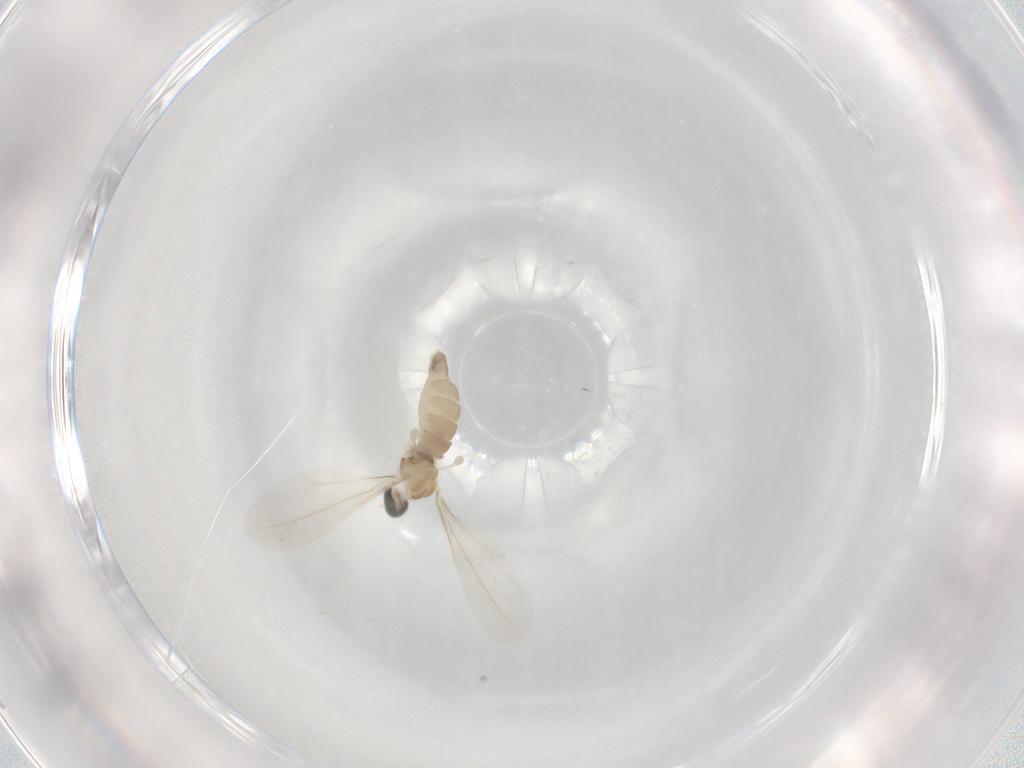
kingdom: Animalia
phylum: Arthropoda
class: Insecta
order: Diptera
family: Cecidomyiidae
